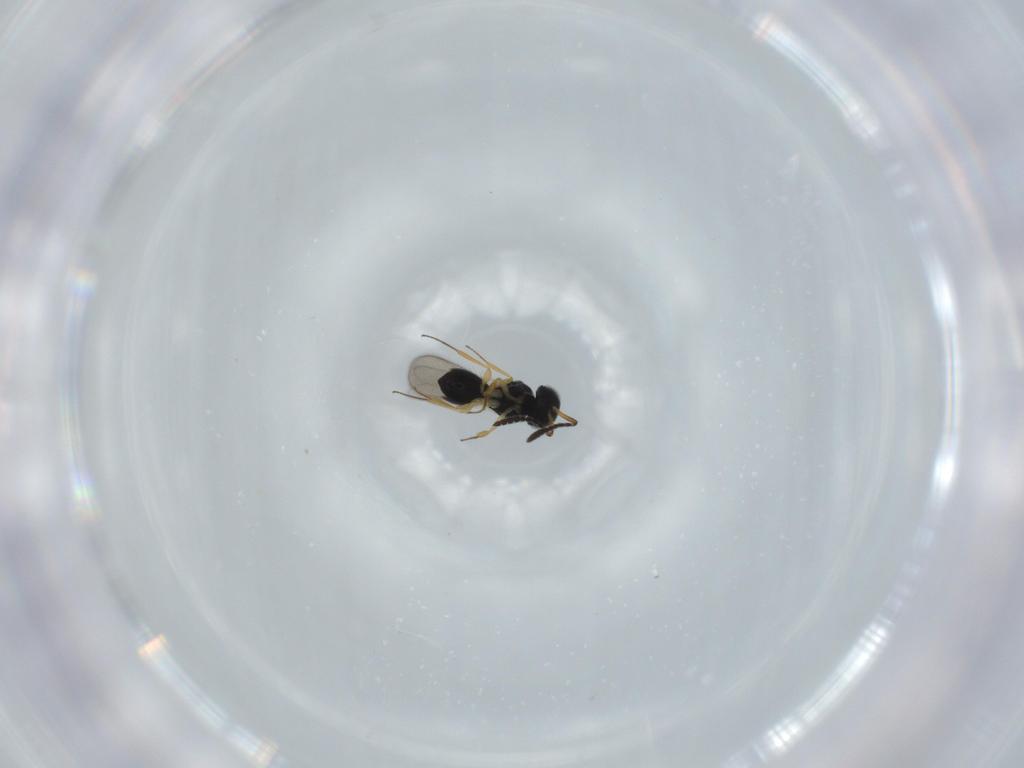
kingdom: Animalia
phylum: Arthropoda
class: Insecta
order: Hymenoptera
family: Scelionidae
